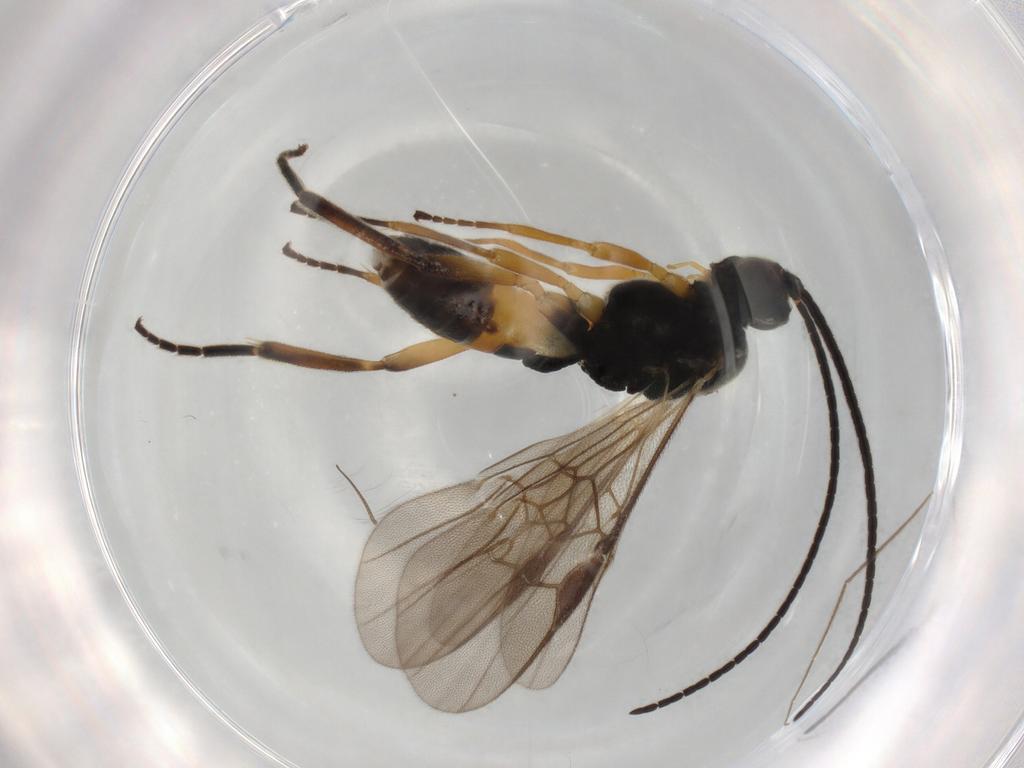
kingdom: Animalia
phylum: Arthropoda
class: Insecta
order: Hymenoptera
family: Braconidae
